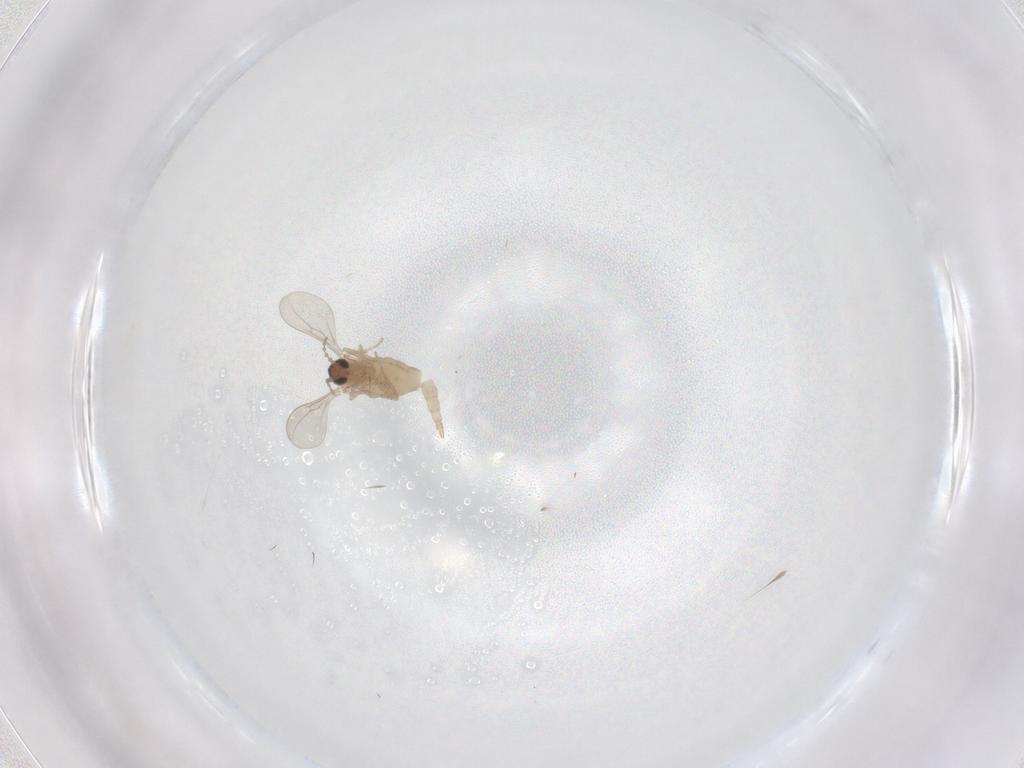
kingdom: Animalia
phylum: Arthropoda
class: Insecta
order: Diptera
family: Cecidomyiidae
